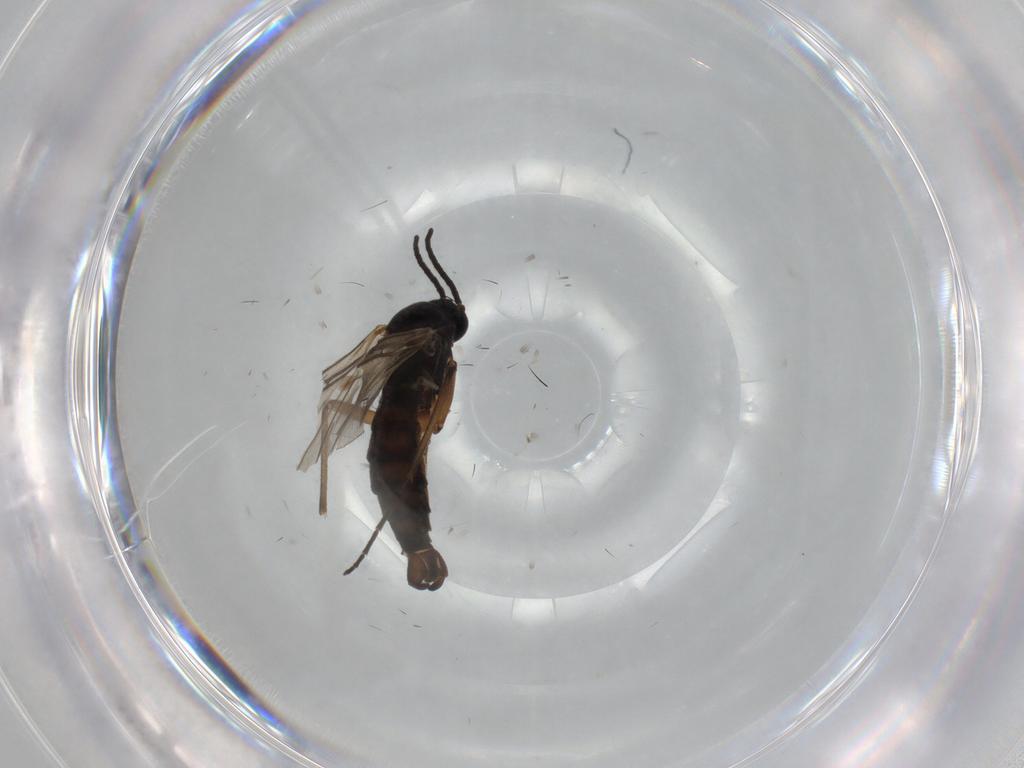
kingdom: Animalia
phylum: Arthropoda
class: Insecta
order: Diptera
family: Sciaridae
